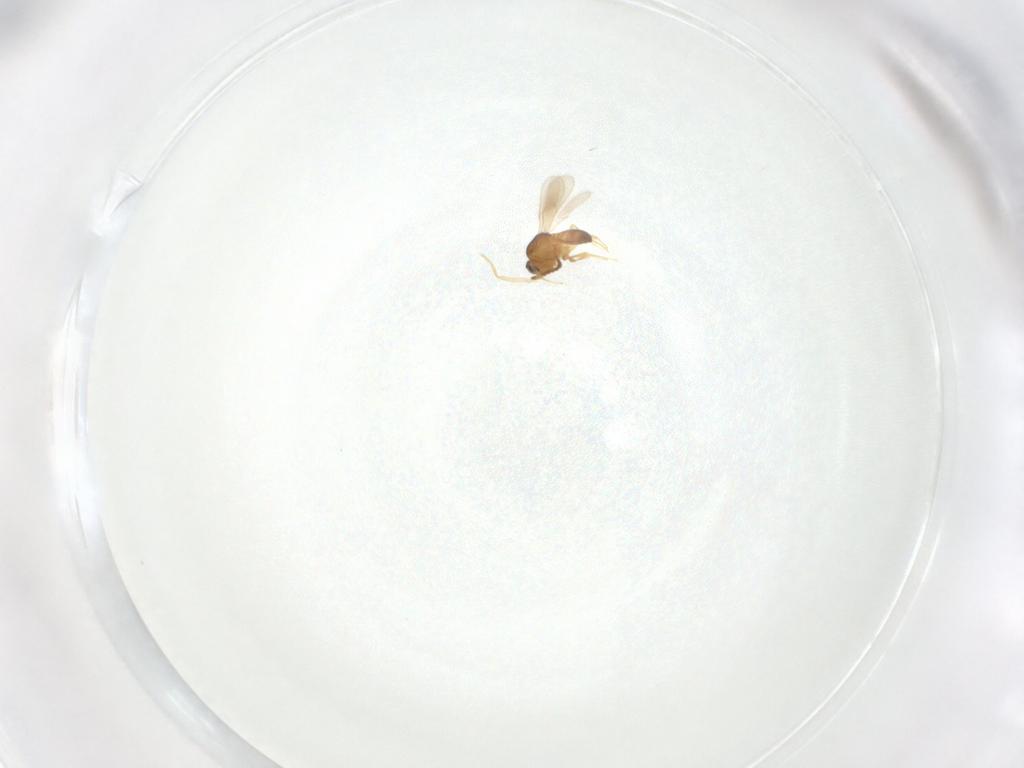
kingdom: Animalia
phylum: Arthropoda
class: Insecta
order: Hymenoptera
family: Scelionidae
